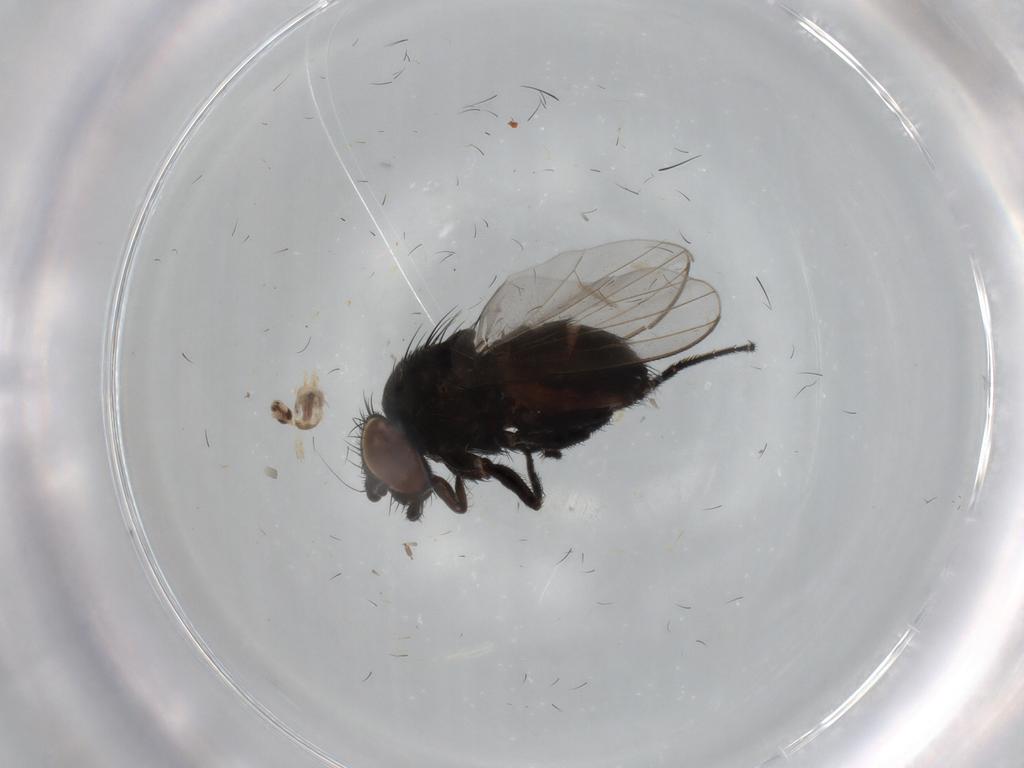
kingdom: Animalia
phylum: Arthropoda
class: Insecta
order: Diptera
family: Milichiidae
